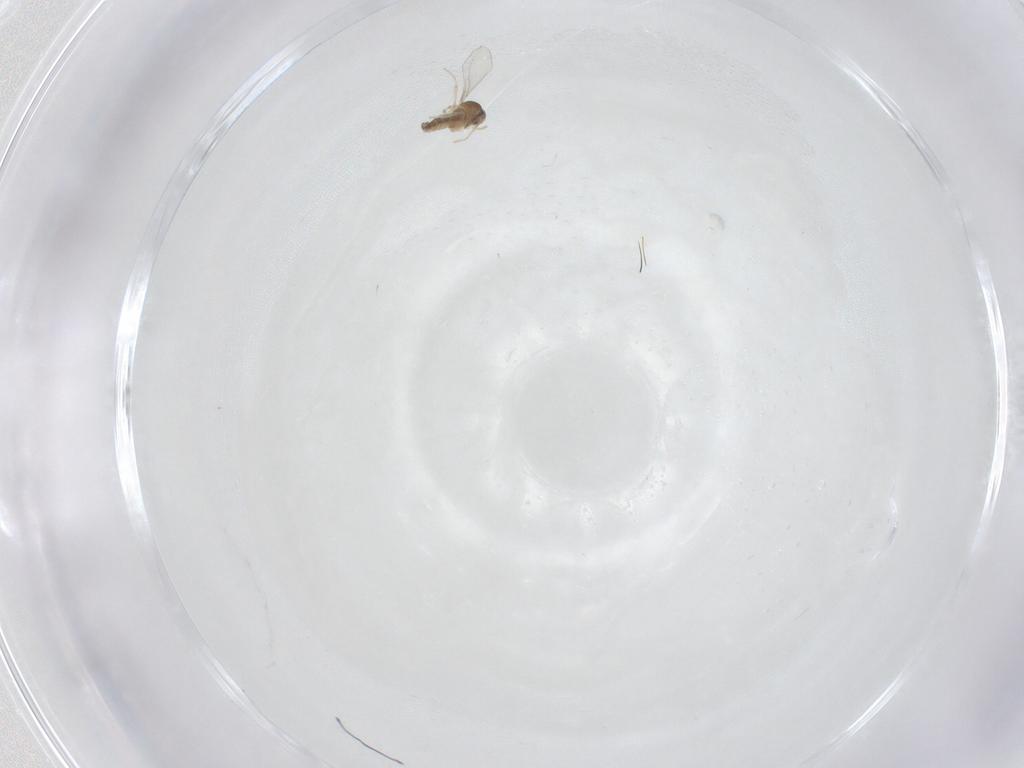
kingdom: Animalia
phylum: Arthropoda
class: Insecta
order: Diptera
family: Cecidomyiidae
